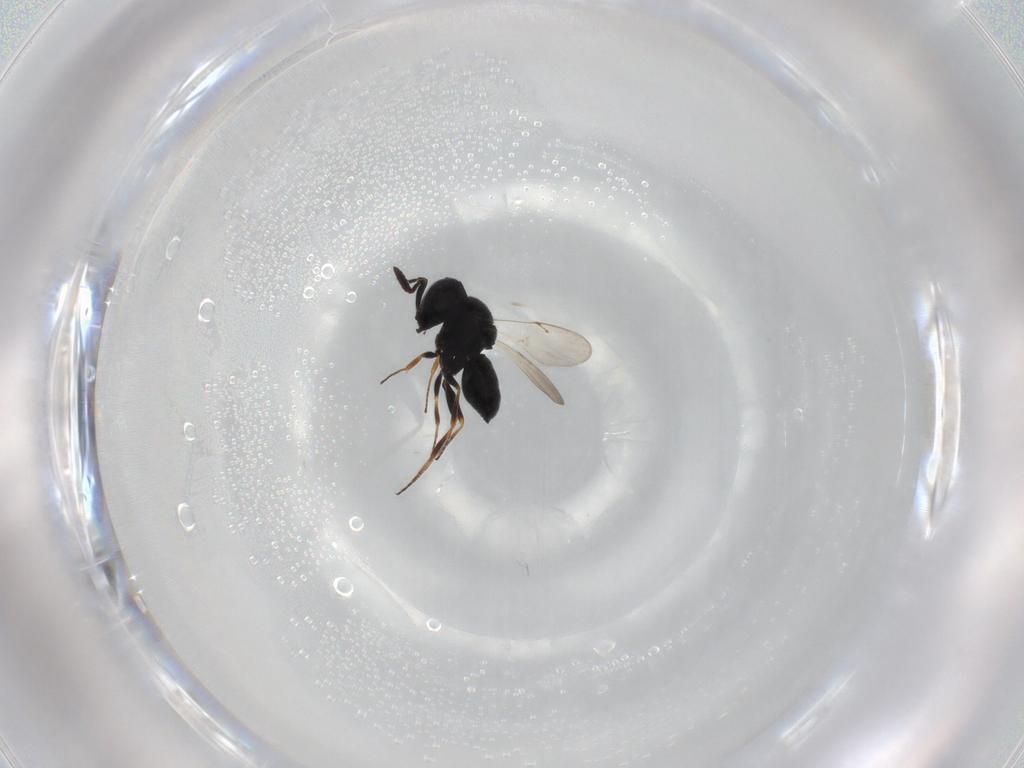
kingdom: Animalia
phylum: Arthropoda
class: Insecta
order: Hymenoptera
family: Scelionidae
